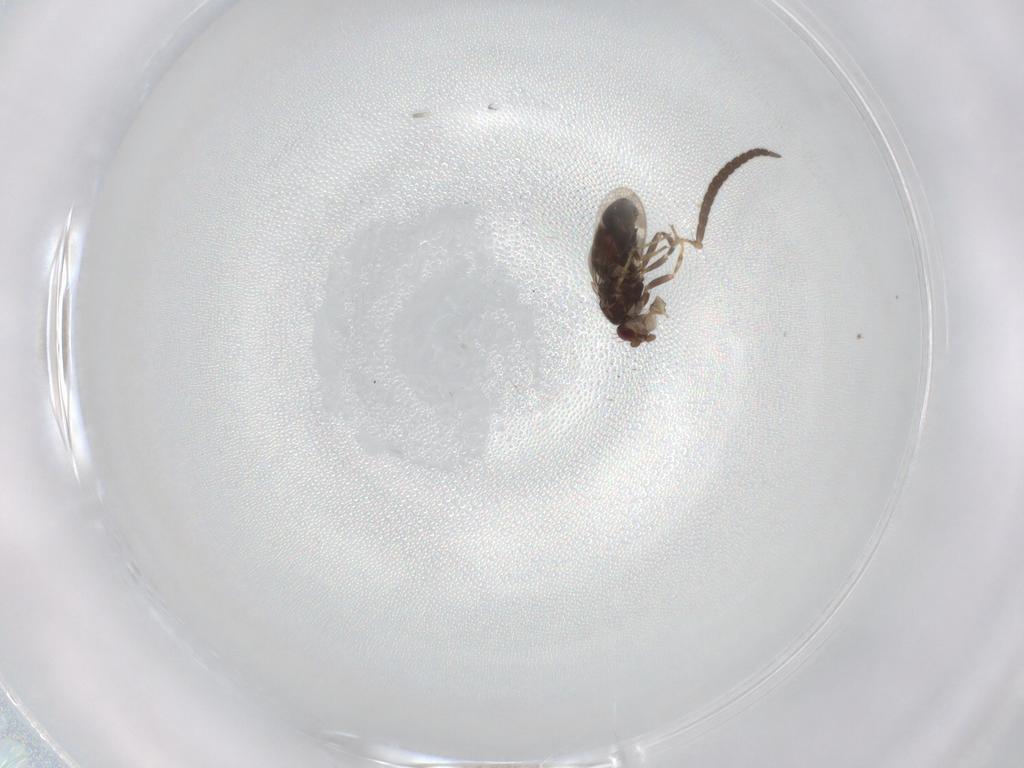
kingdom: Animalia
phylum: Arthropoda
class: Insecta
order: Diptera
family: Sphaeroceridae
